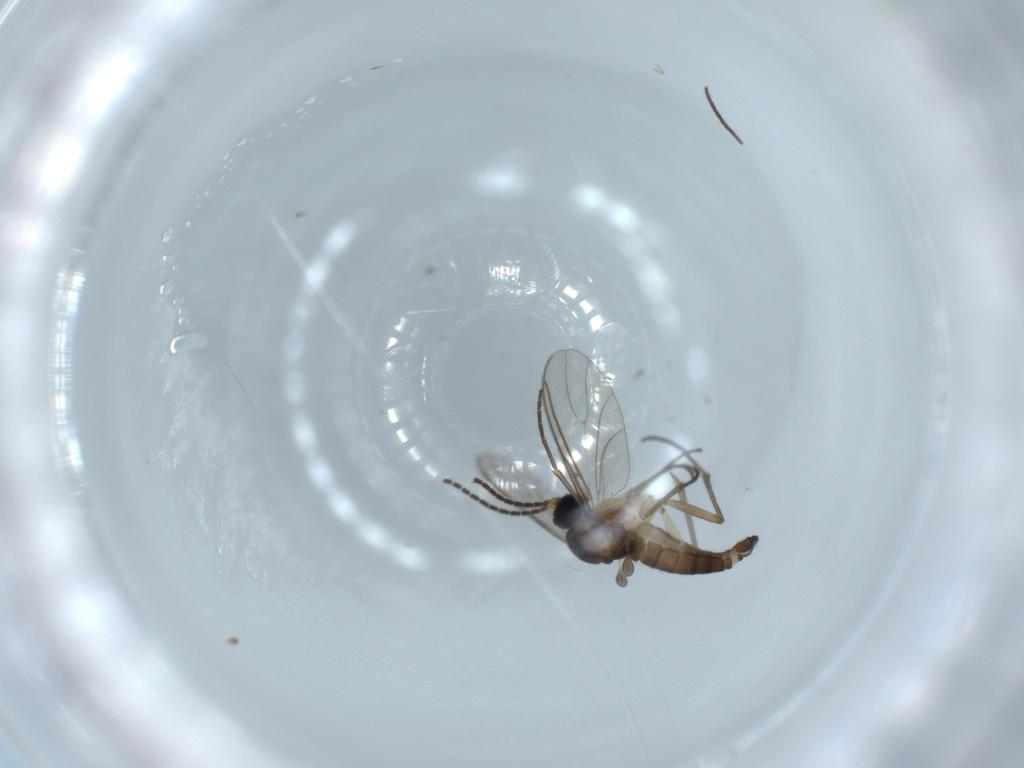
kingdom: Animalia
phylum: Arthropoda
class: Insecta
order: Diptera
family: Sciaridae
